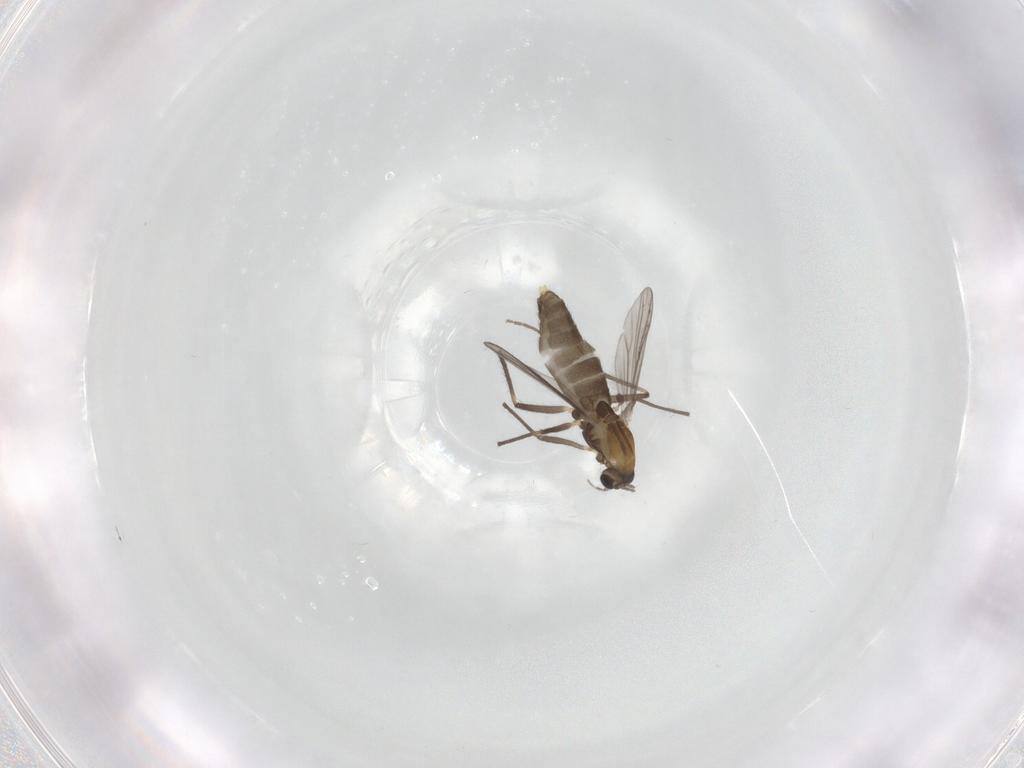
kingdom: Animalia
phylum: Arthropoda
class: Insecta
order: Diptera
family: Chironomidae
